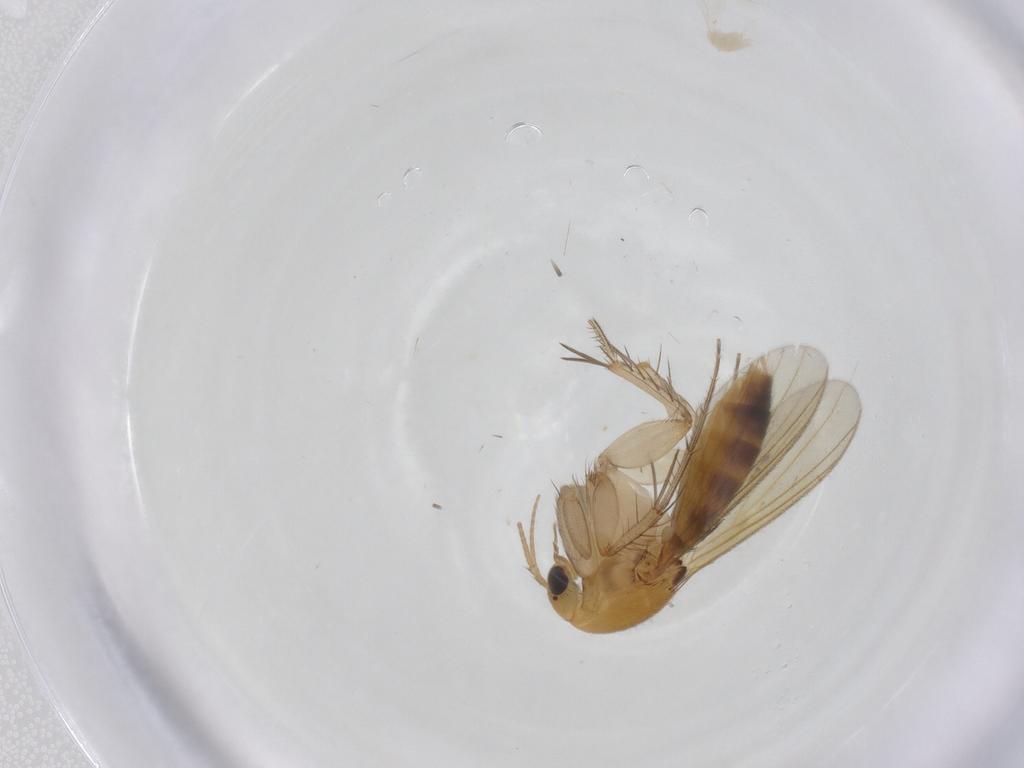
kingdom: Animalia
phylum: Arthropoda
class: Insecta
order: Diptera
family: Mycetophilidae
